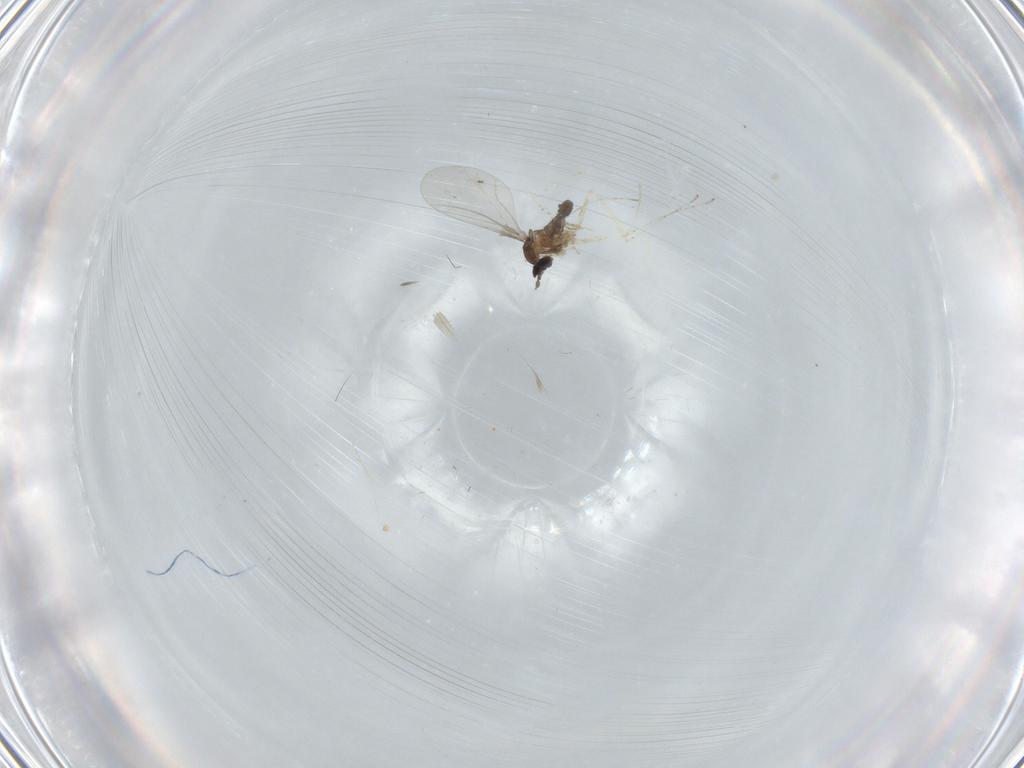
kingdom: Animalia
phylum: Arthropoda
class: Insecta
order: Diptera
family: Cecidomyiidae
